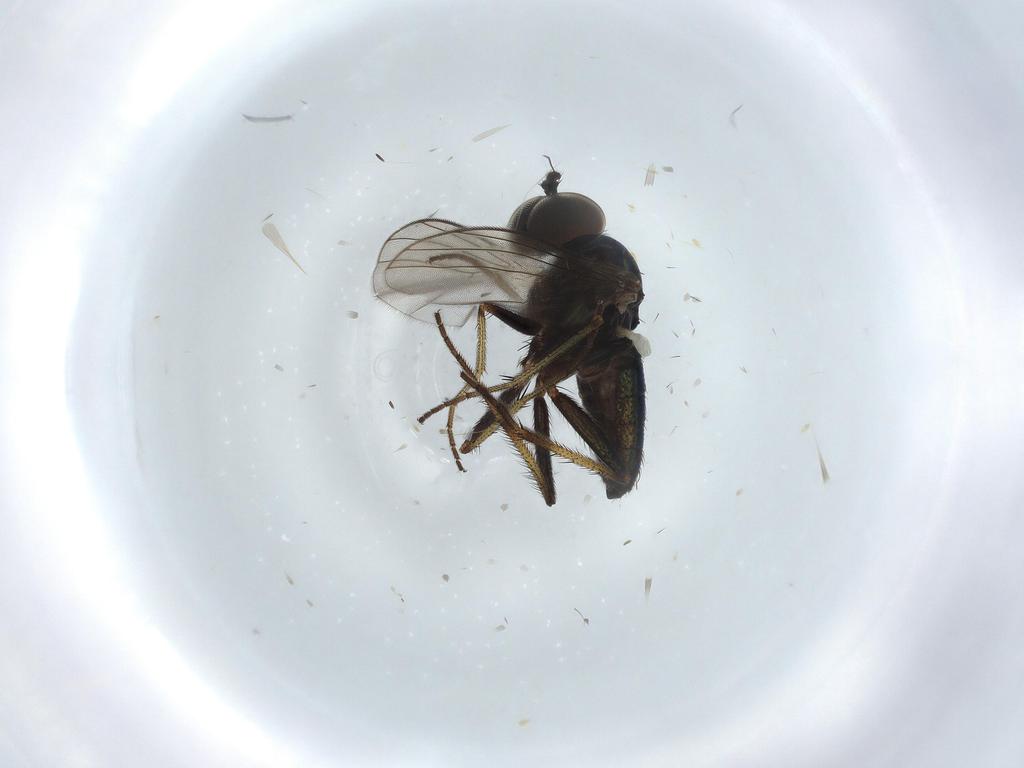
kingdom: Animalia
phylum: Arthropoda
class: Insecta
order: Diptera
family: Dolichopodidae
